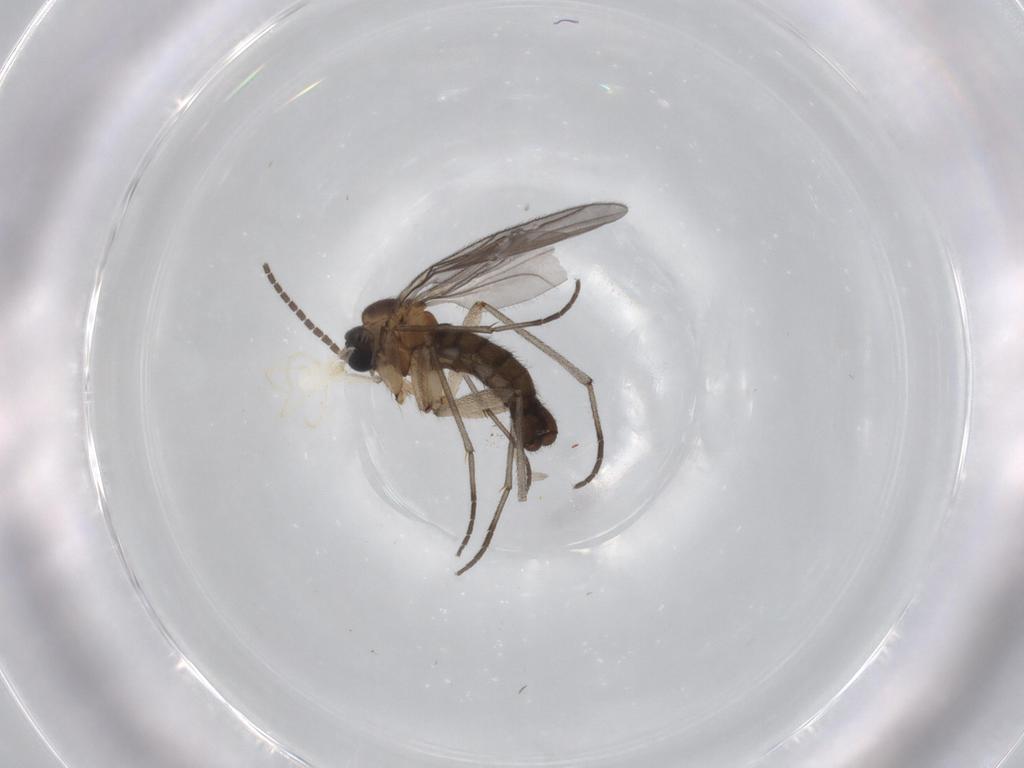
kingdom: Animalia
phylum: Arthropoda
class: Insecta
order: Diptera
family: Sciaridae
